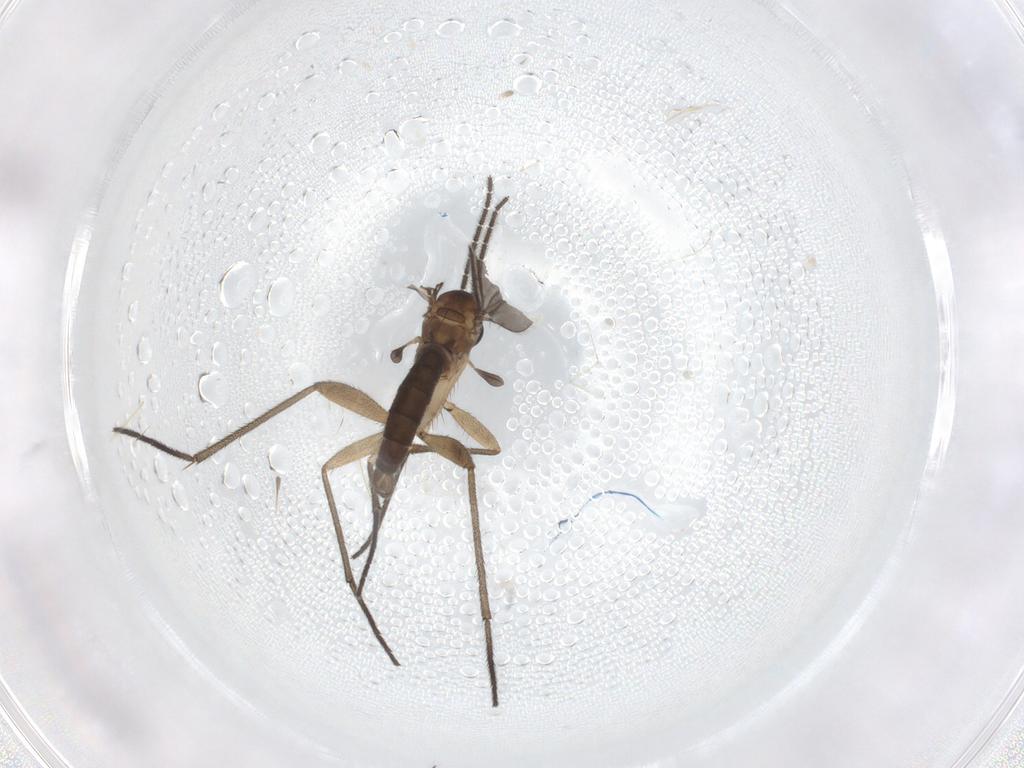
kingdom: Animalia
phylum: Arthropoda
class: Insecta
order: Diptera
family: Sciaridae
